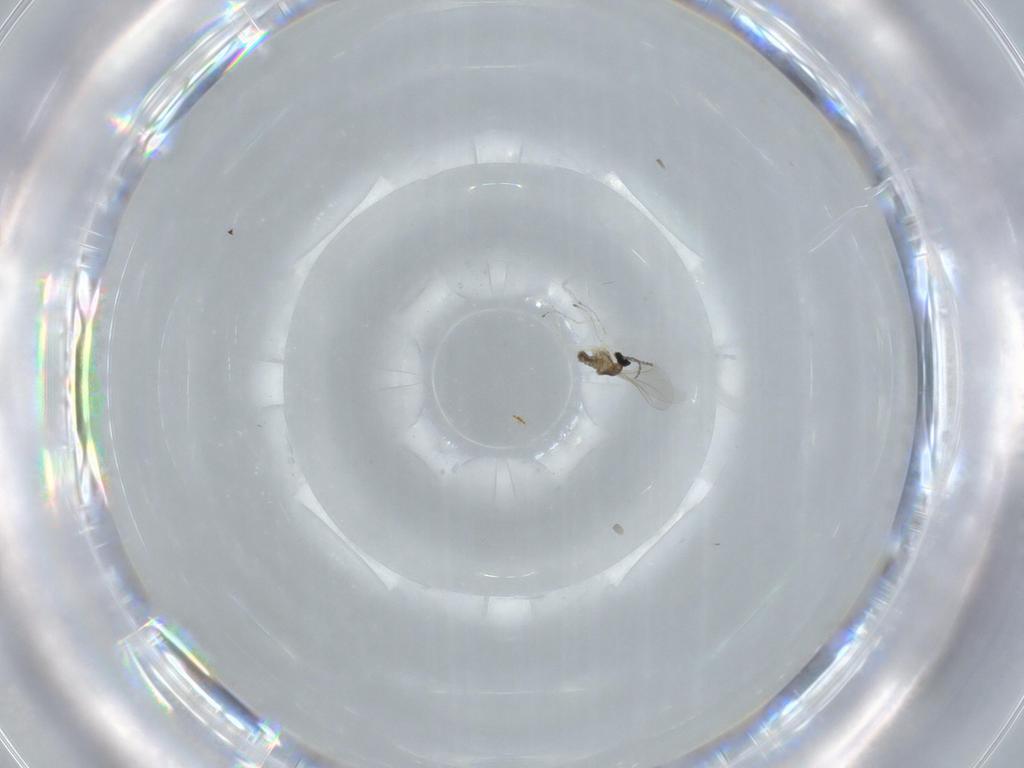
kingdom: Animalia
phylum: Arthropoda
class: Insecta
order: Diptera
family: Cecidomyiidae
